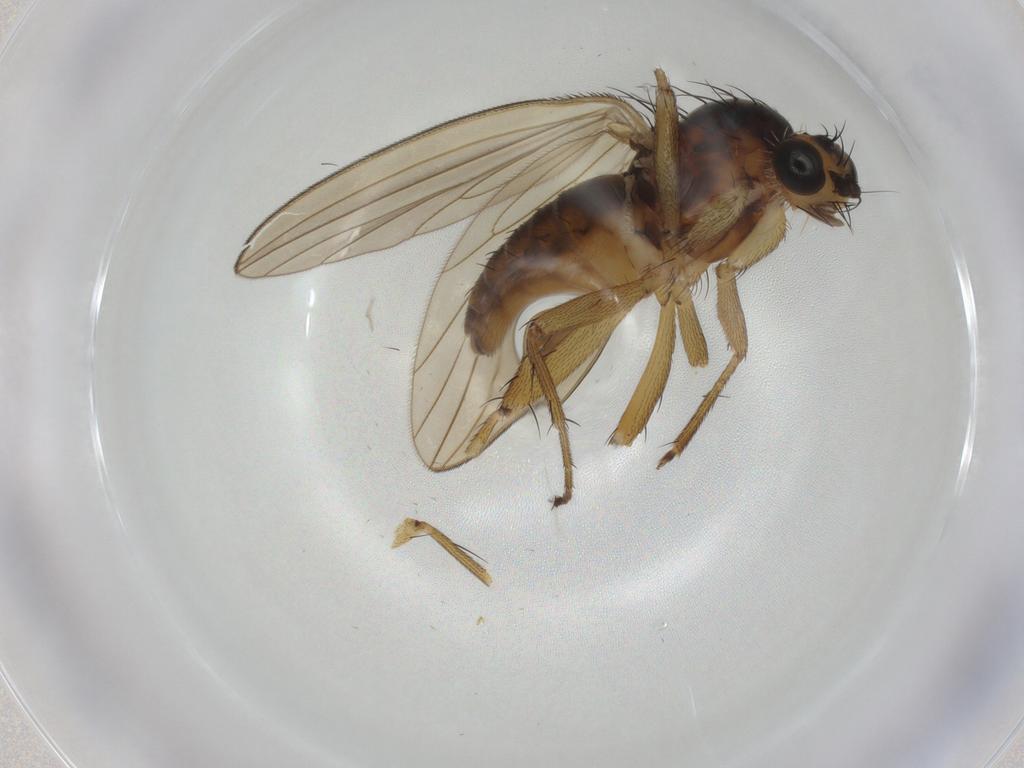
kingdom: Animalia
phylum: Arthropoda
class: Insecta
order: Diptera
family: Lonchopteridae
